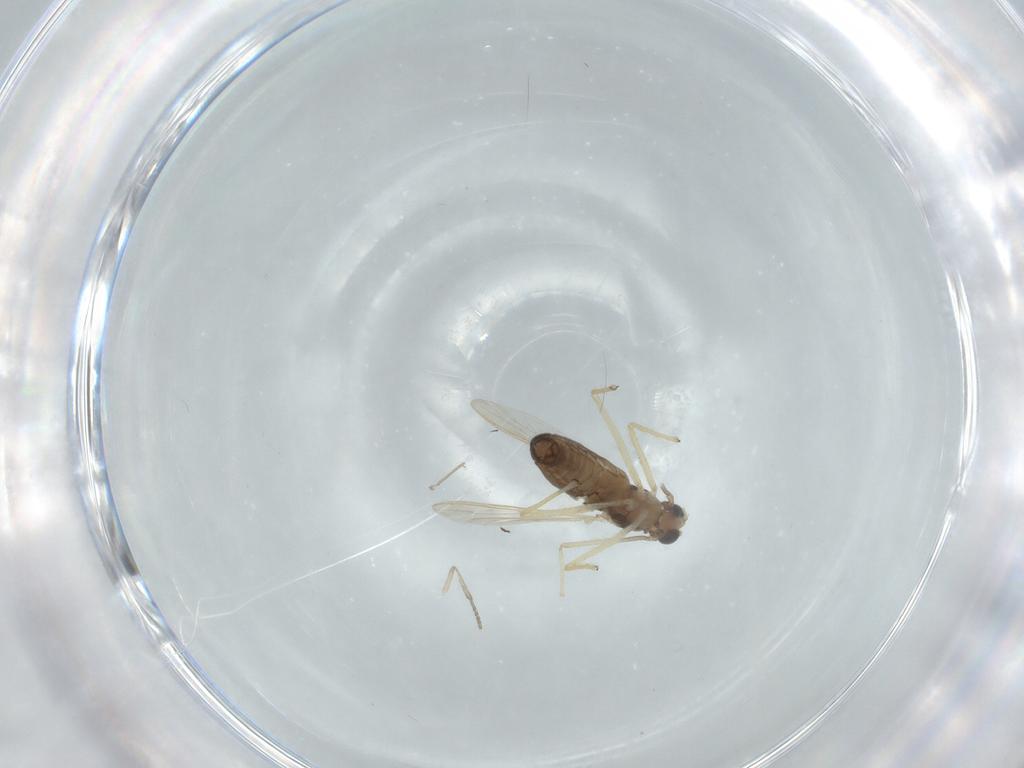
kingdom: Animalia
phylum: Arthropoda
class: Insecta
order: Diptera
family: Chironomidae
